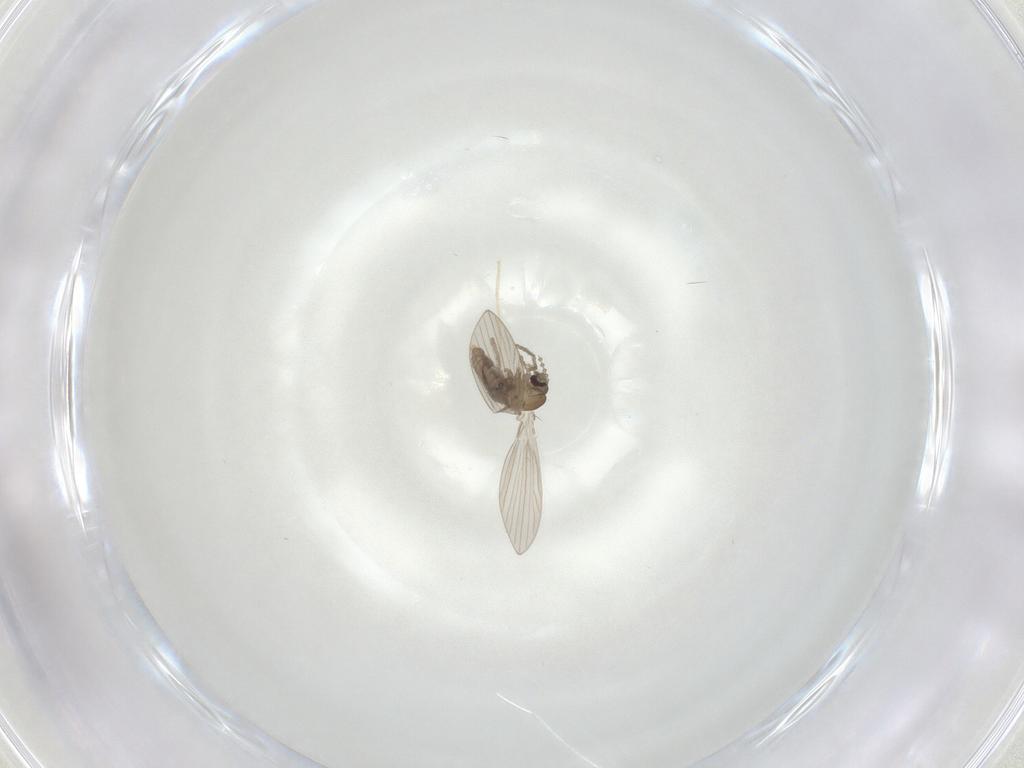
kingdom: Animalia
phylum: Arthropoda
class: Insecta
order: Diptera
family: Psychodidae
